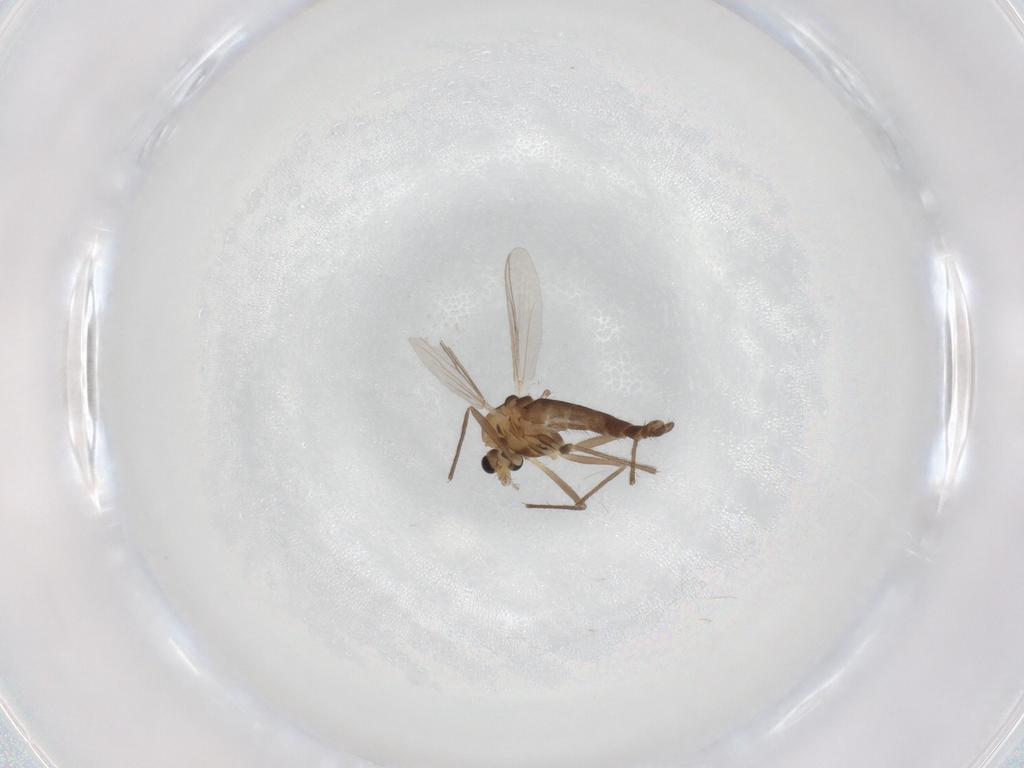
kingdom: Animalia
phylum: Arthropoda
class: Insecta
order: Diptera
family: Chironomidae
